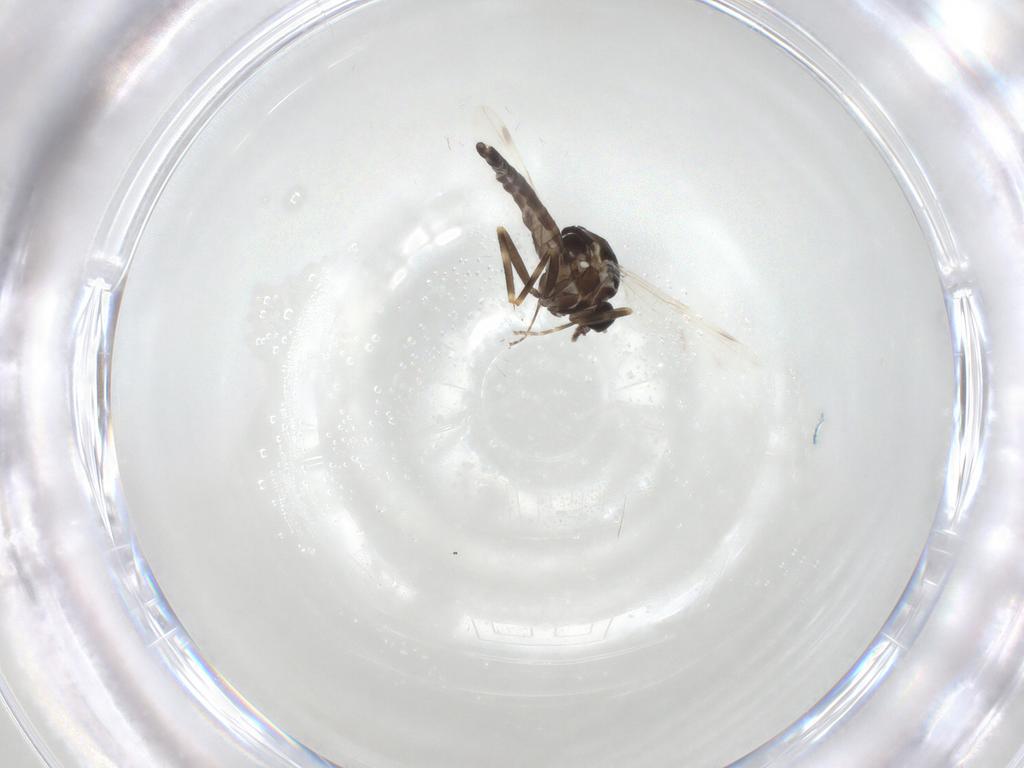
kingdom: Animalia
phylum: Arthropoda
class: Insecta
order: Diptera
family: Ceratopogonidae
